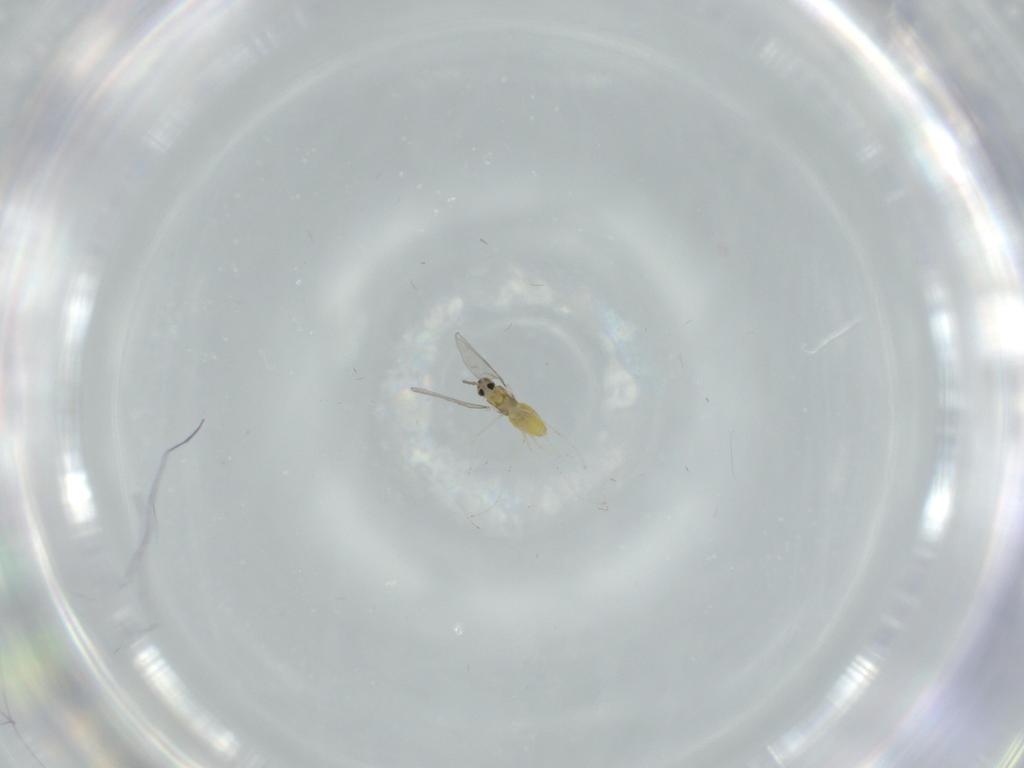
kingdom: Animalia
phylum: Arthropoda
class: Insecta
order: Diptera
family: Cecidomyiidae
